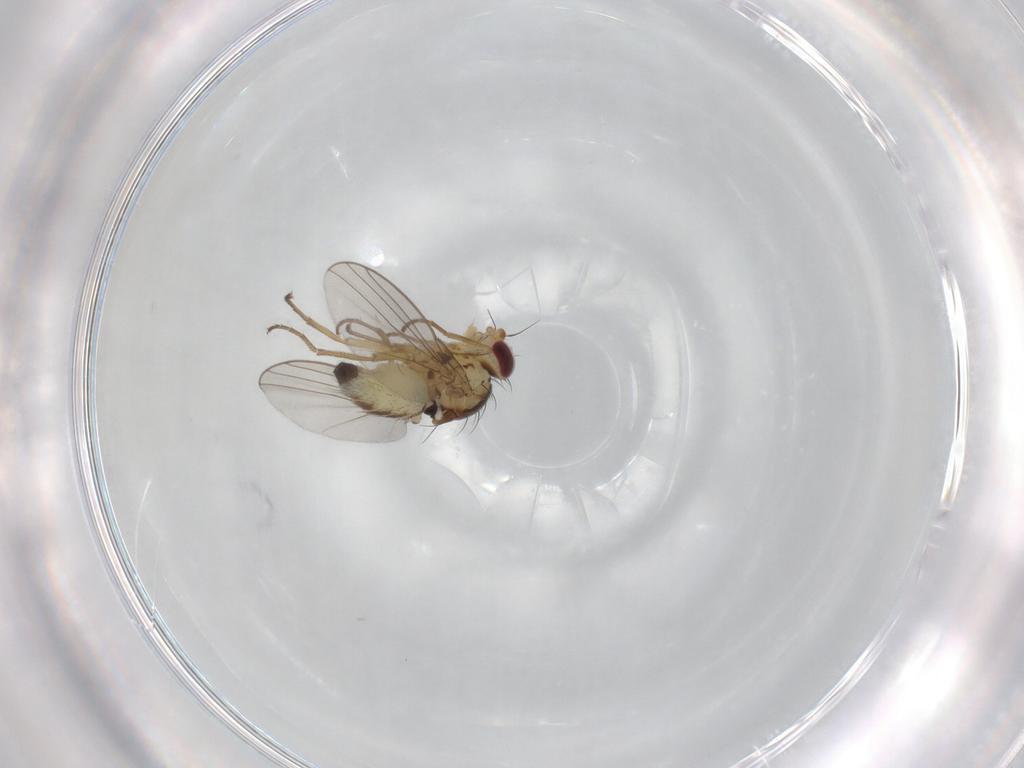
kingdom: Animalia
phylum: Arthropoda
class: Insecta
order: Diptera
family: Agromyzidae
